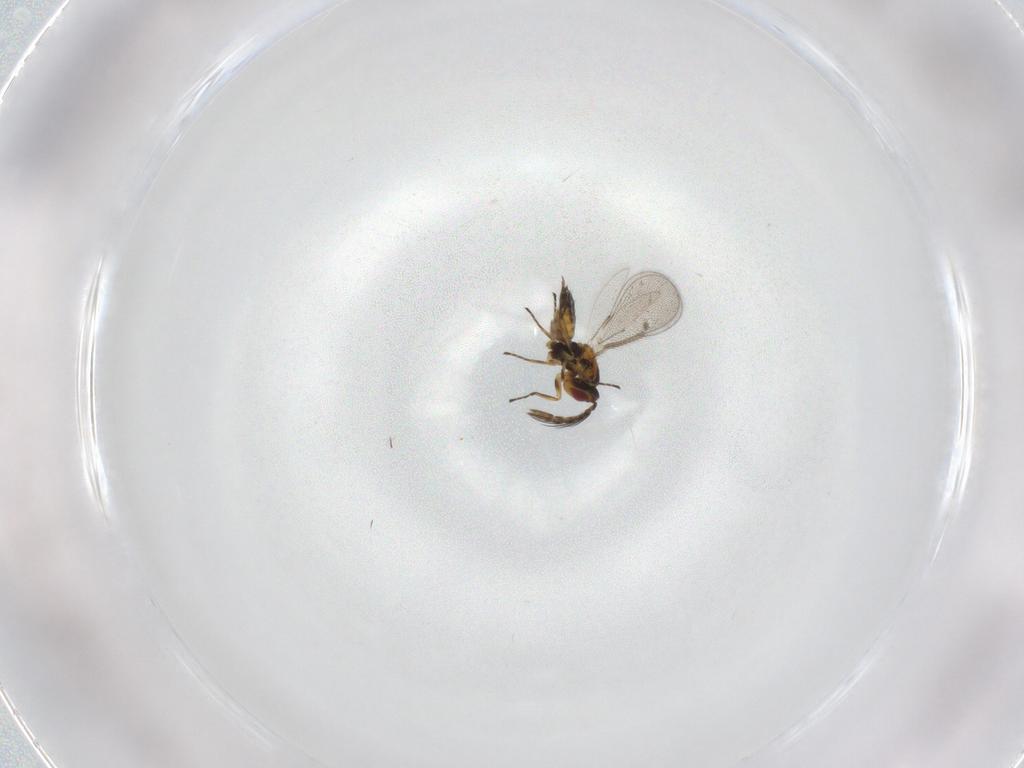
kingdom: Animalia
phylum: Arthropoda
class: Insecta
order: Hymenoptera
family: Eulophidae
